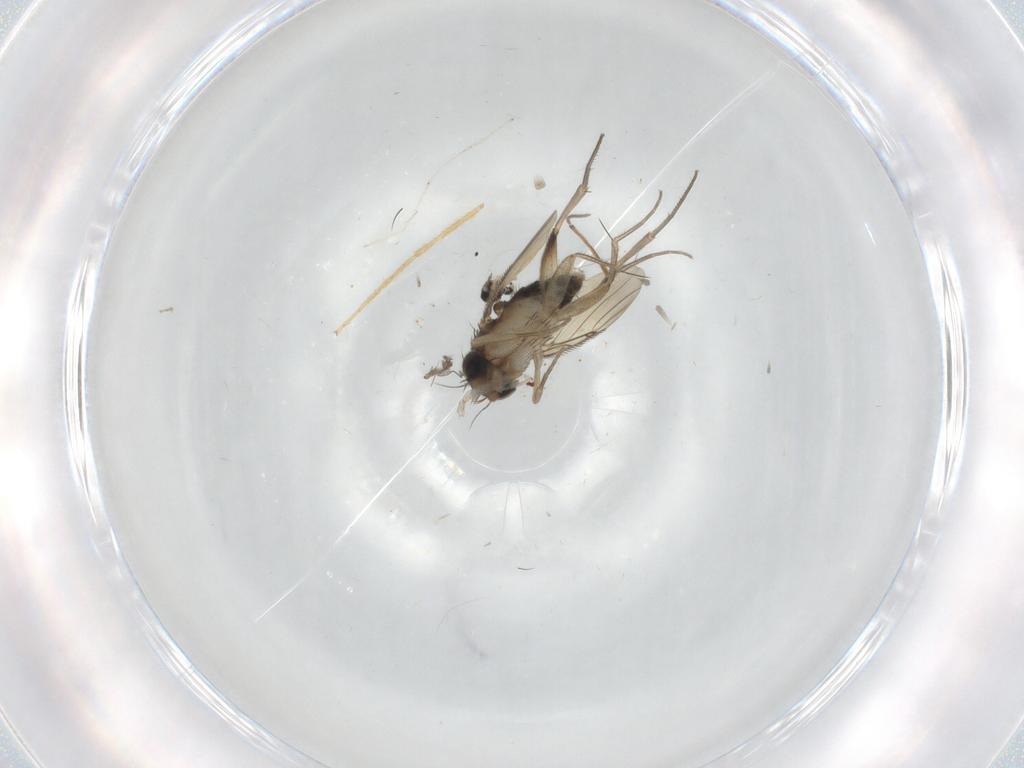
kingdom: Animalia
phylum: Arthropoda
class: Insecta
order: Diptera
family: Phoridae
